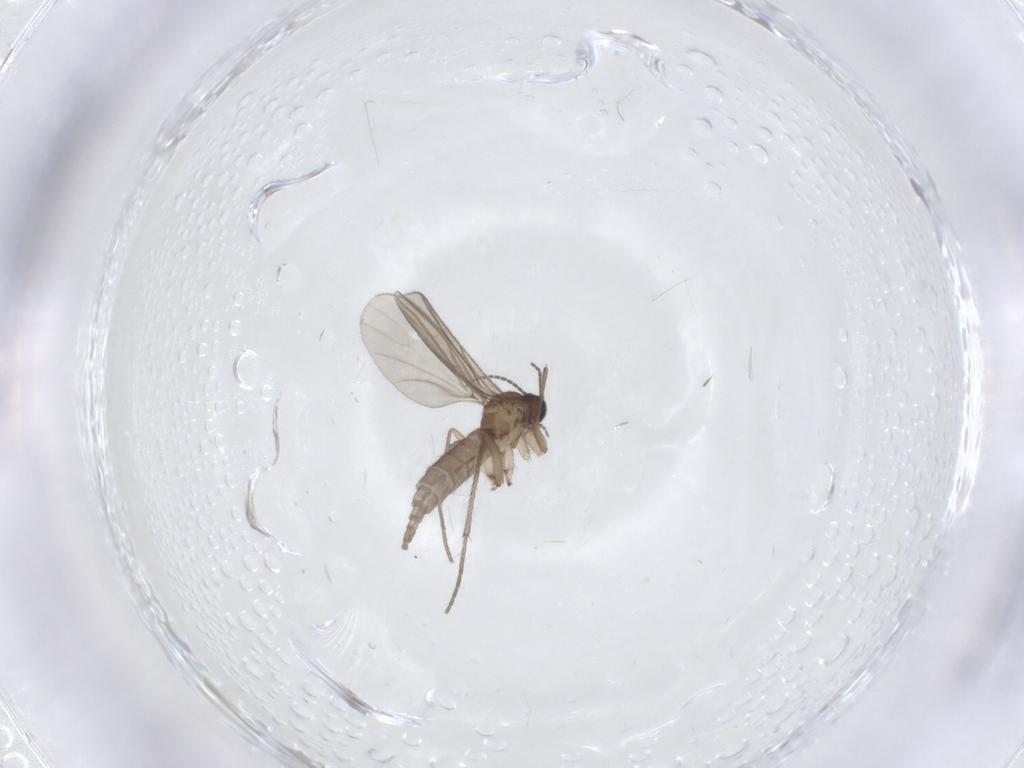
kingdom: Animalia
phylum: Arthropoda
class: Insecta
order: Diptera
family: Sciaridae
